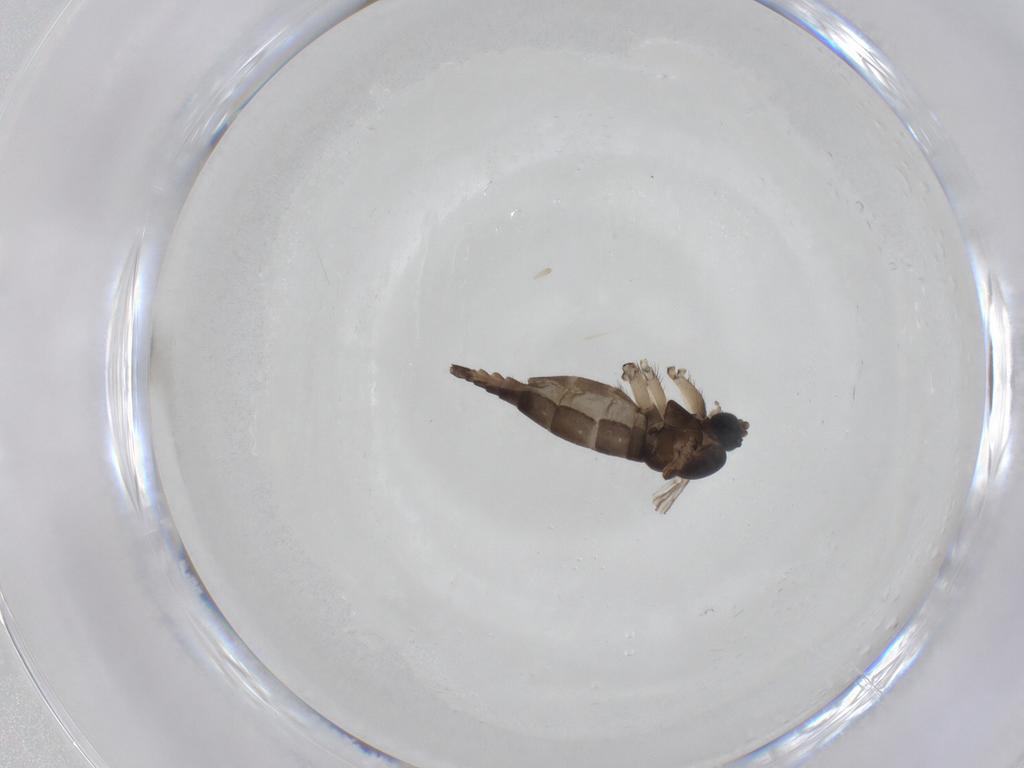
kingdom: Animalia
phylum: Arthropoda
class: Insecta
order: Diptera
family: Sciaridae
